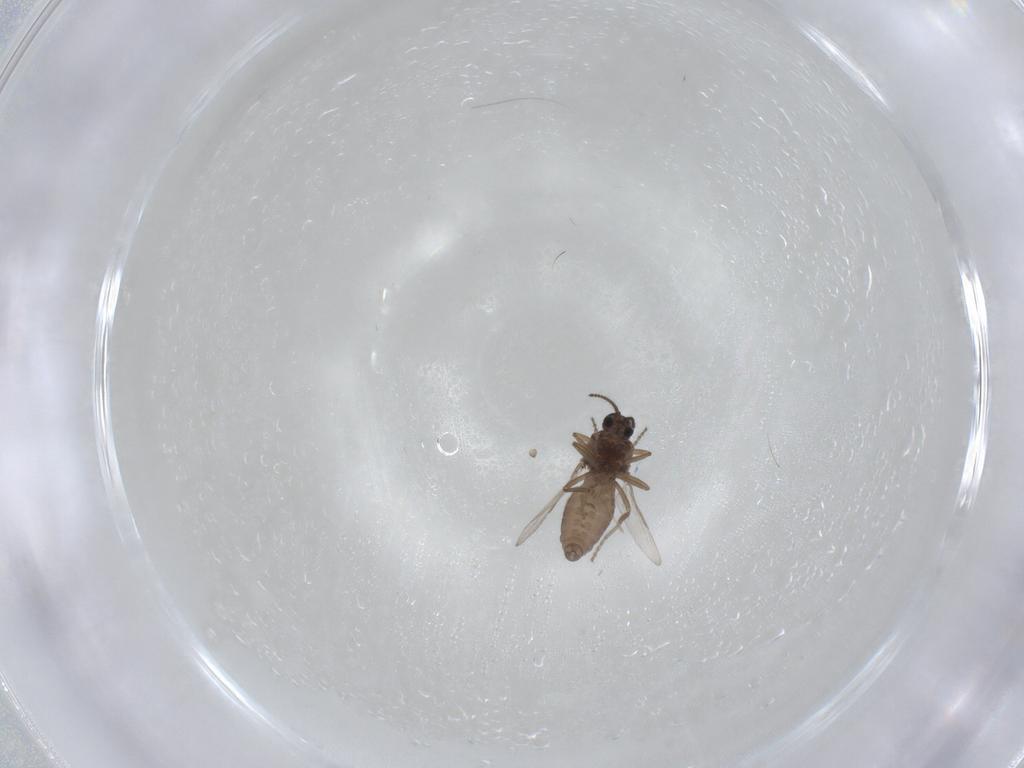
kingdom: Animalia
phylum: Arthropoda
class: Insecta
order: Diptera
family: Ceratopogonidae
